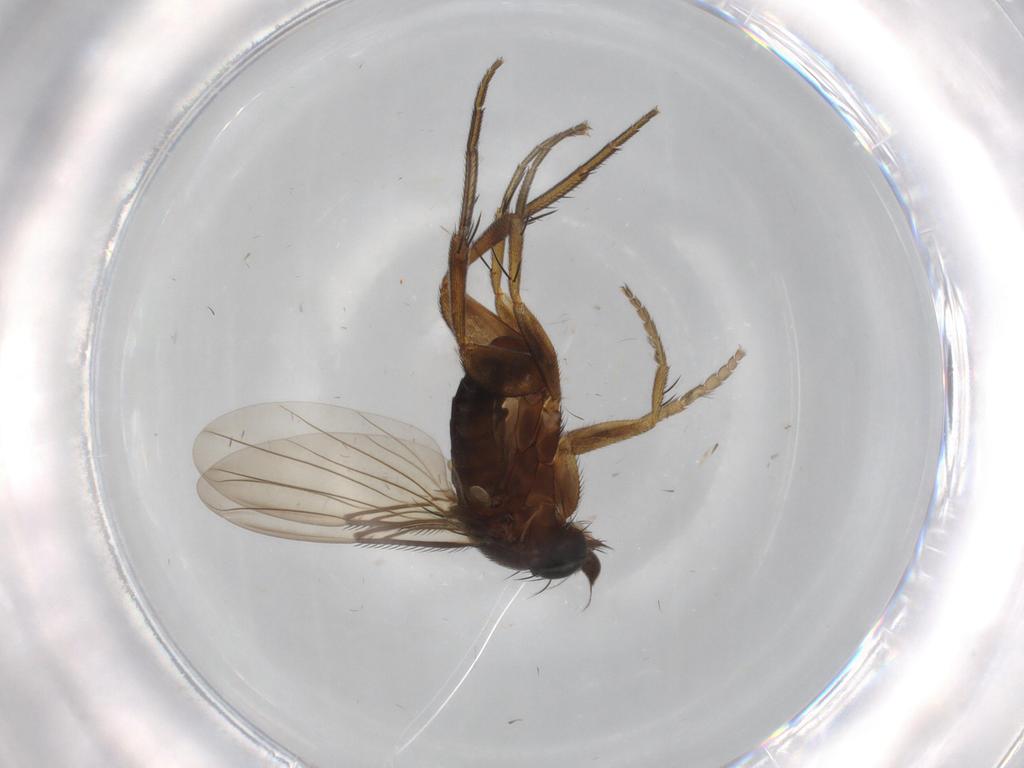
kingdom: Animalia
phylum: Arthropoda
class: Insecta
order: Diptera
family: Phoridae
